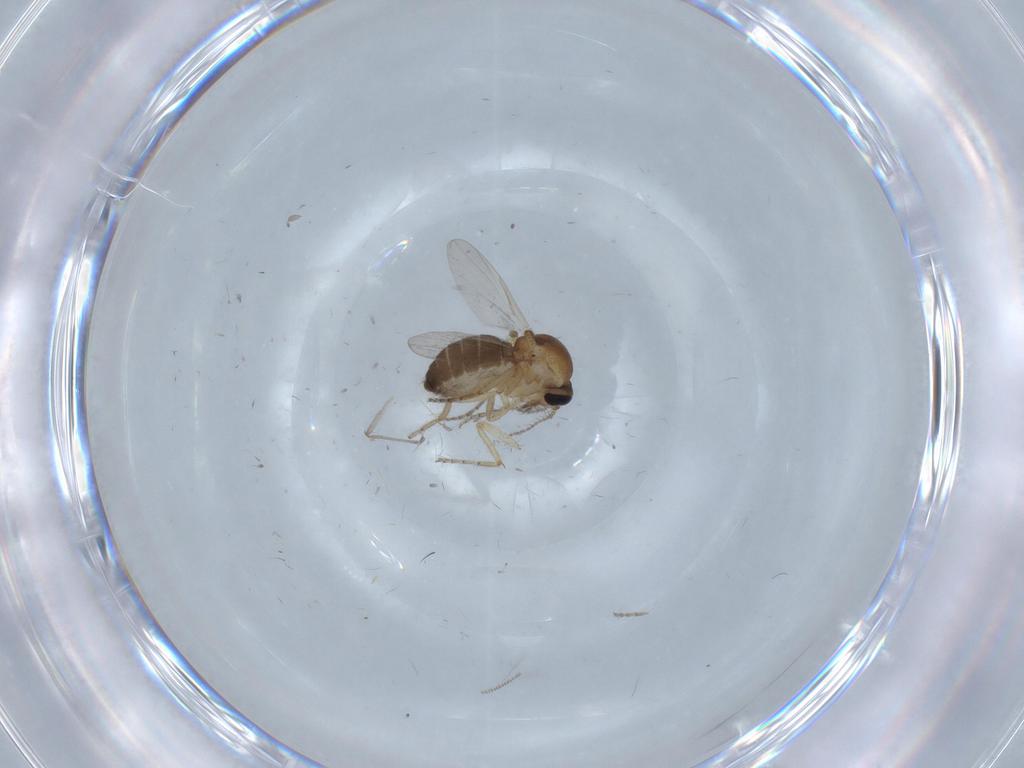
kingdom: Animalia
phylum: Arthropoda
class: Insecta
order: Diptera
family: Ceratopogonidae
